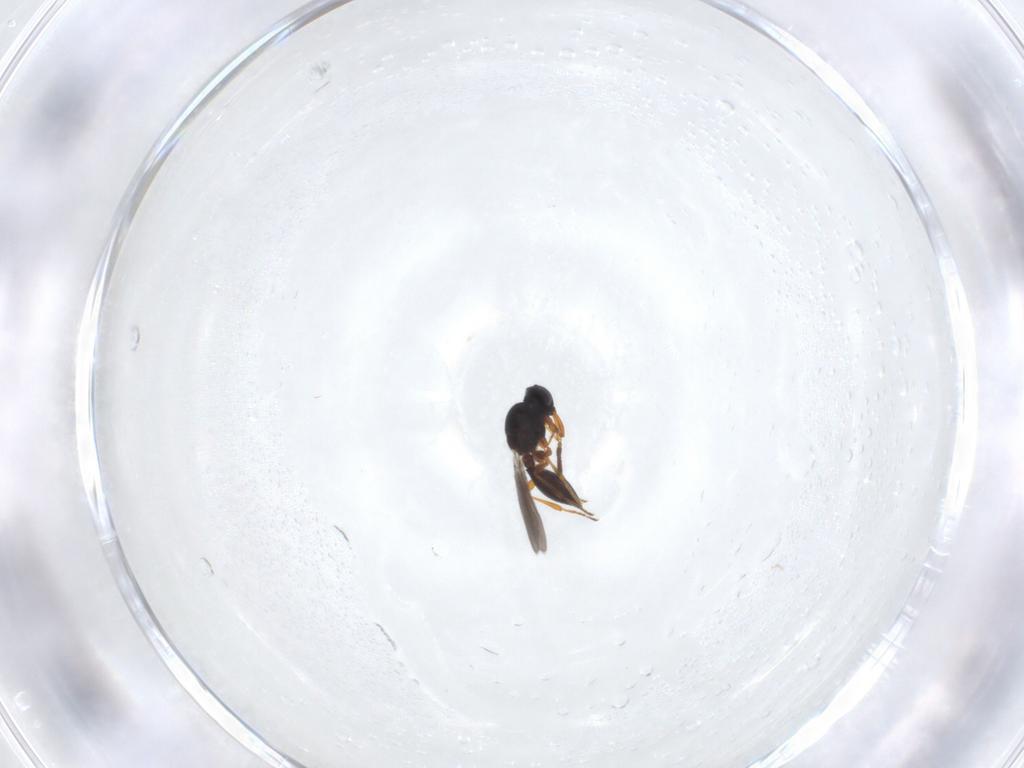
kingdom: Animalia
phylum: Arthropoda
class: Insecta
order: Hymenoptera
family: Platygastridae
